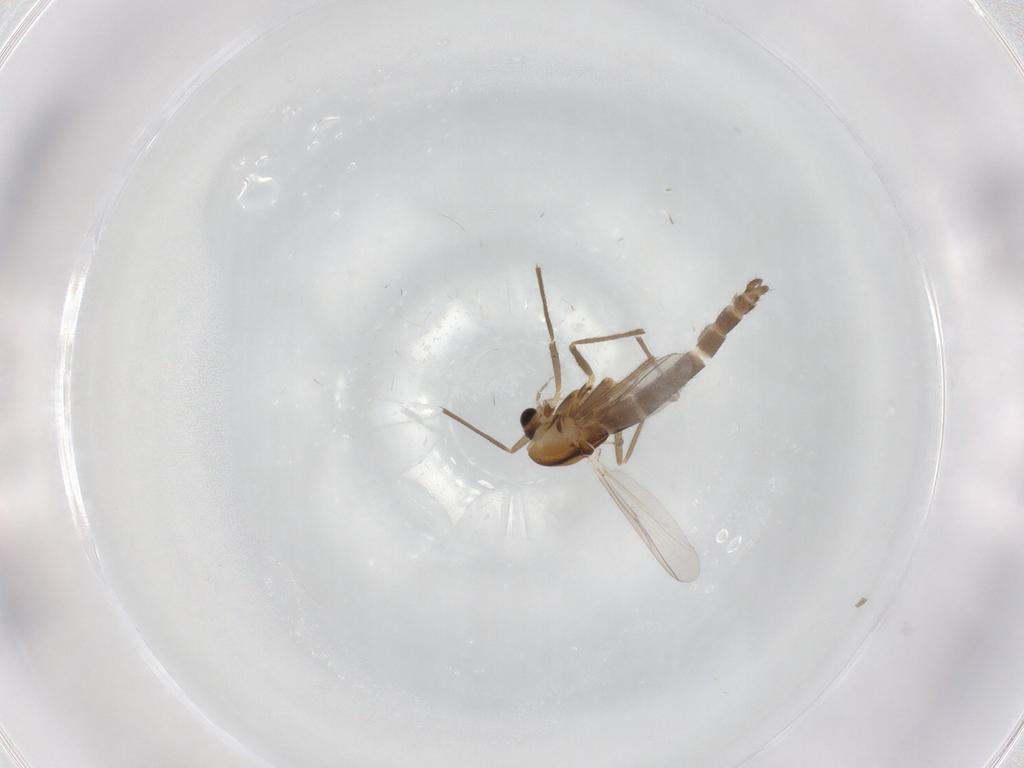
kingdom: Animalia
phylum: Arthropoda
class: Insecta
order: Diptera
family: Chironomidae
